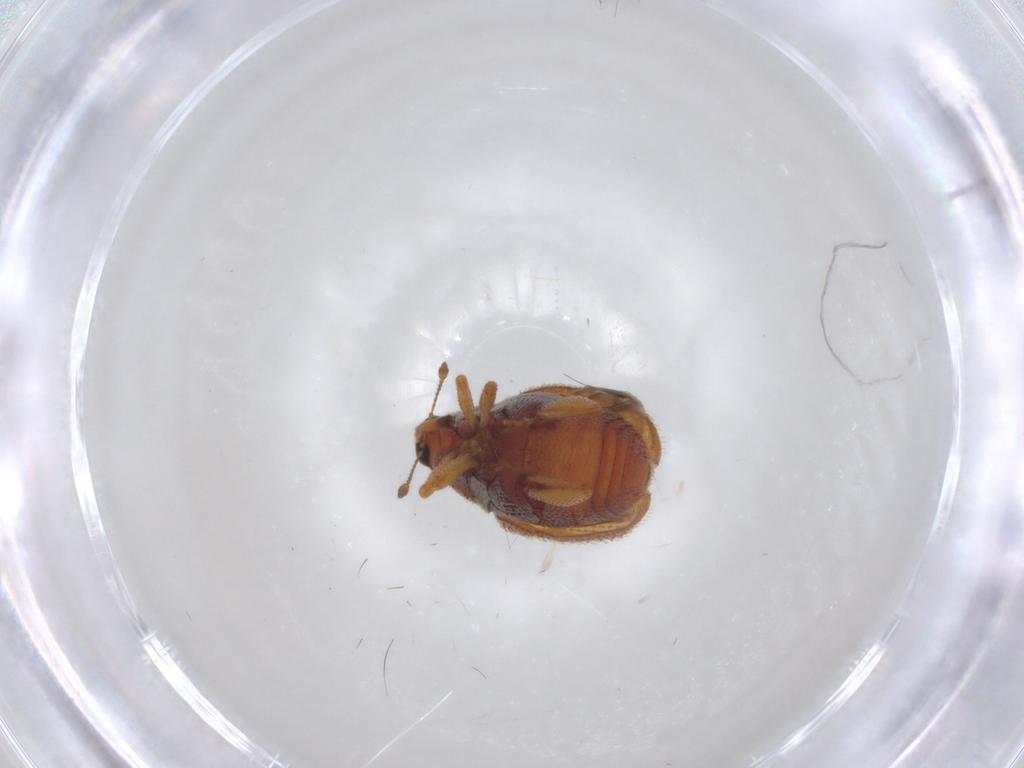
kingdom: Animalia
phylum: Arthropoda
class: Insecta
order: Coleoptera
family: Curculionidae
